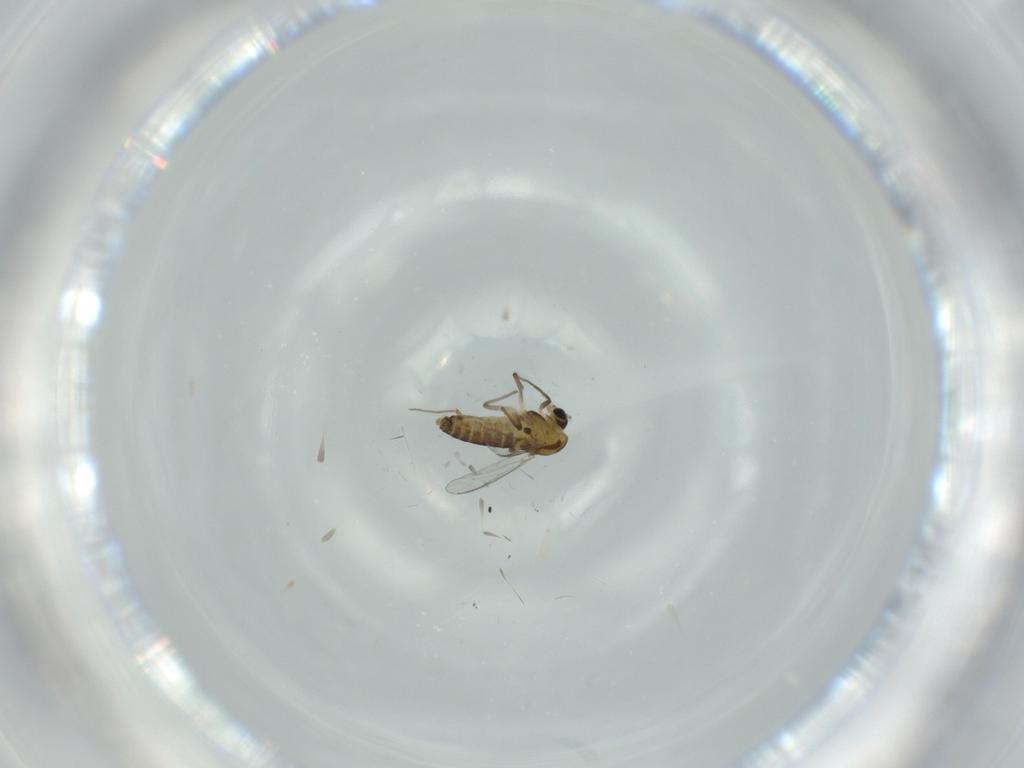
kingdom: Animalia
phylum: Arthropoda
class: Insecta
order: Diptera
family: Chironomidae
